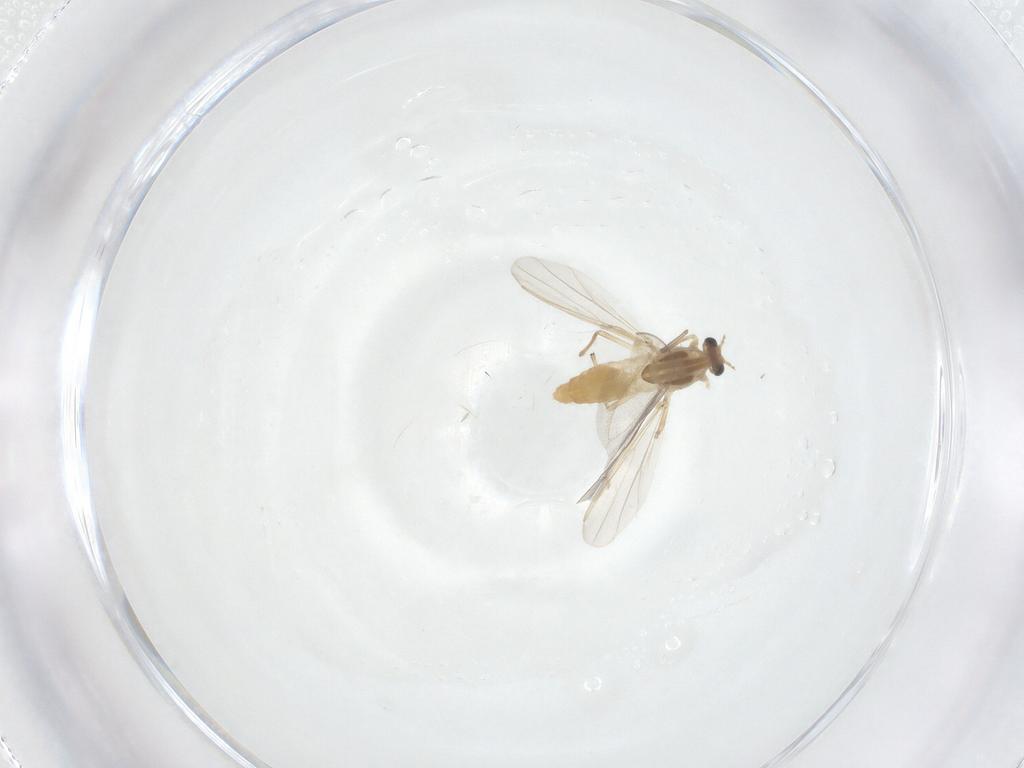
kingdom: Animalia
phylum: Arthropoda
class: Insecta
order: Diptera
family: Chironomidae
